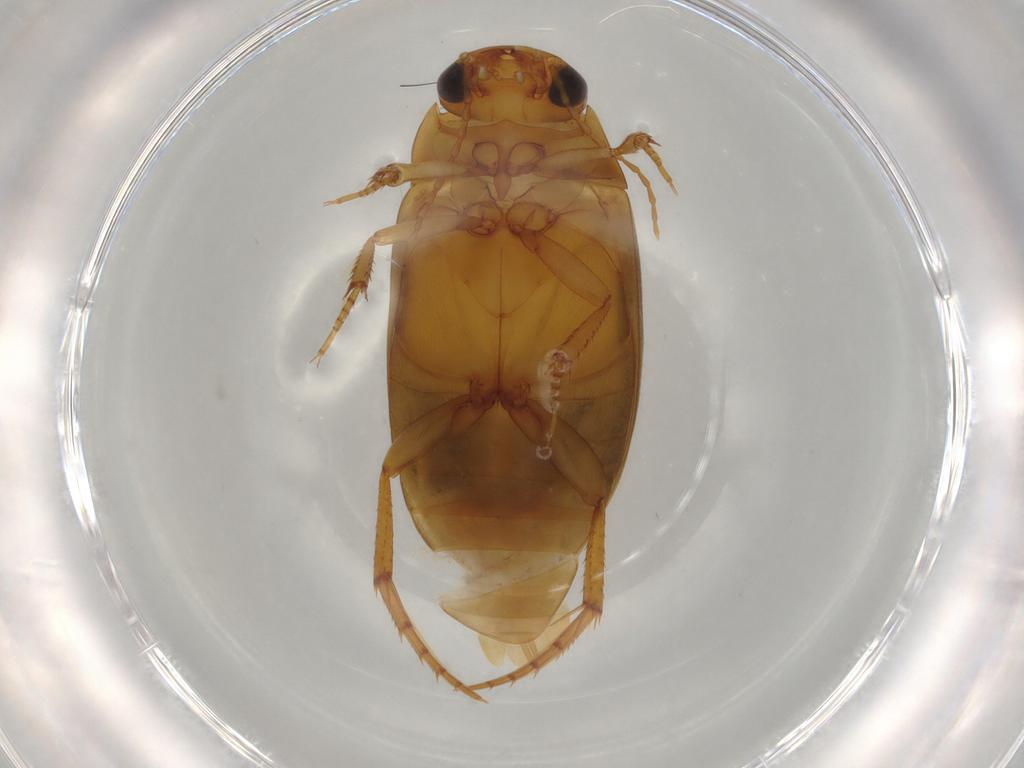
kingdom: Animalia
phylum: Arthropoda
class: Insecta
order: Coleoptera
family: Dytiscidae
